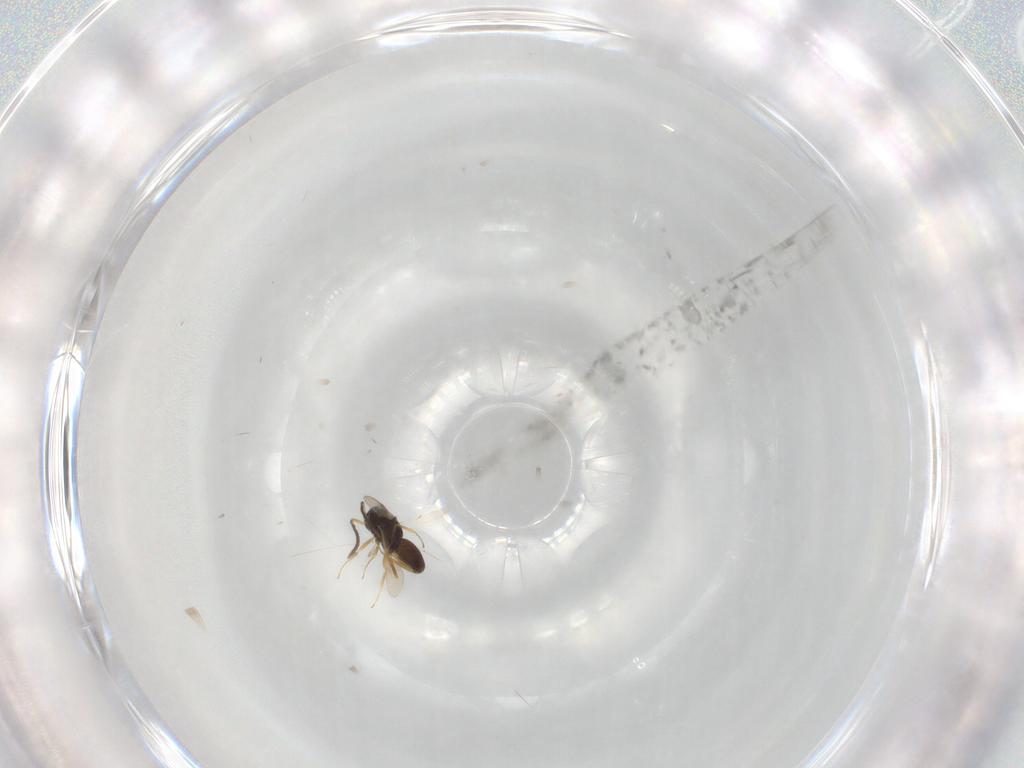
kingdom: Animalia
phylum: Arthropoda
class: Insecta
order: Hymenoptera
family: Scelionidae
